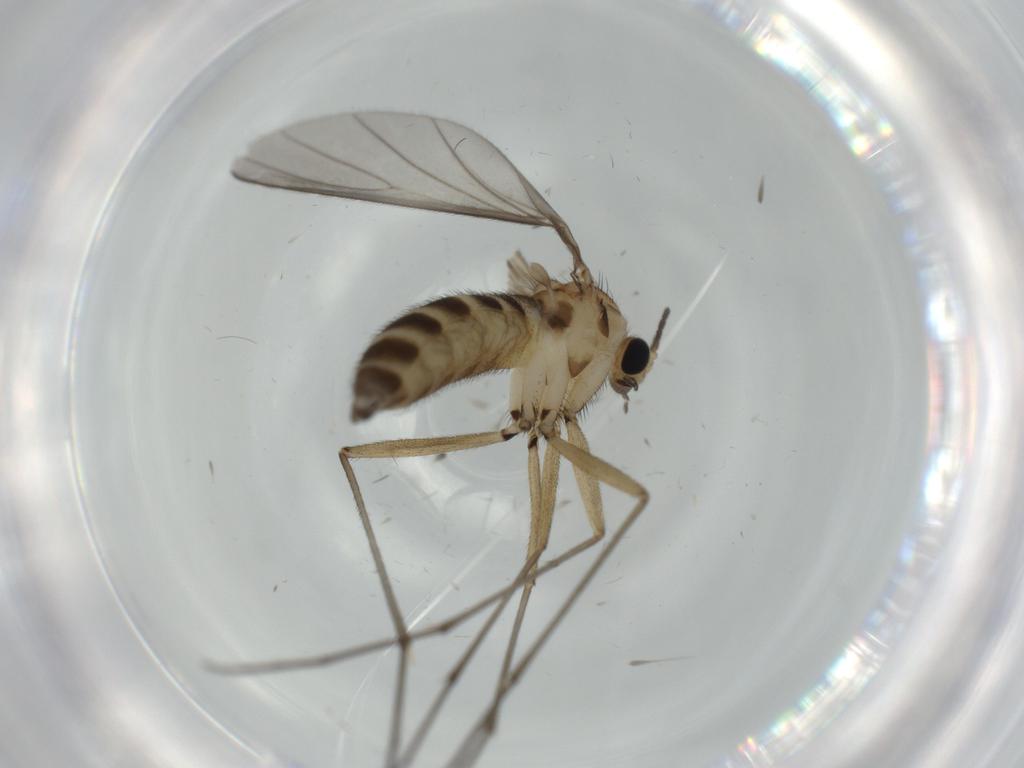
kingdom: Animalia
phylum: Arthropoda
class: Insecta
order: Diptera
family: Sciaridae
